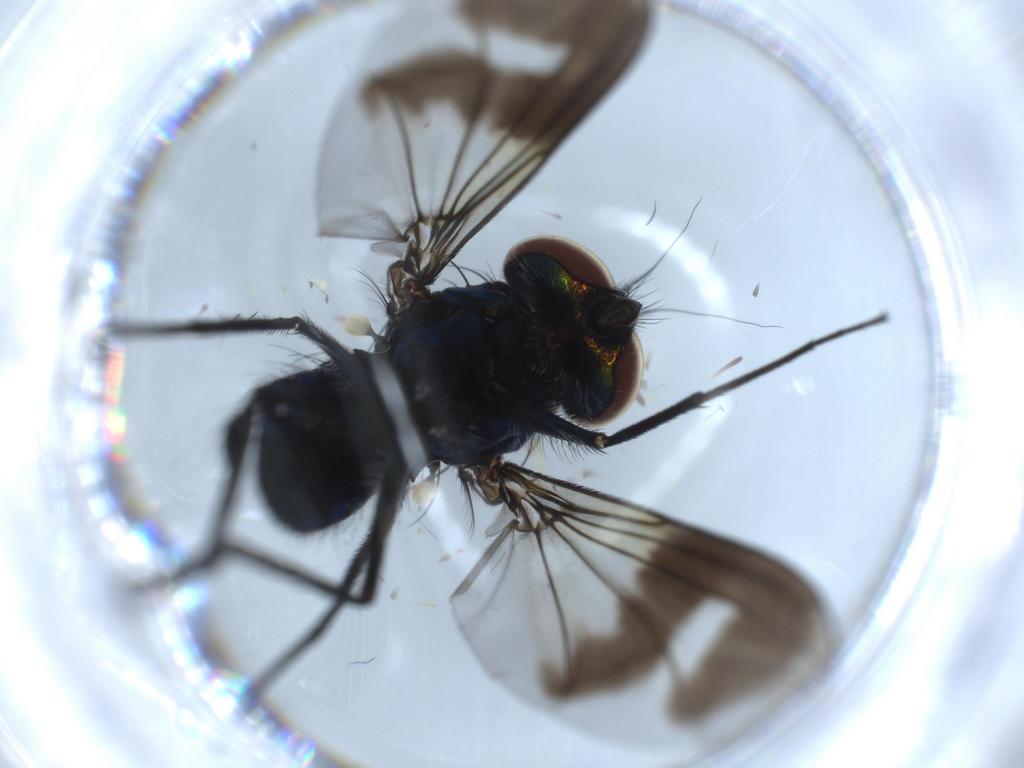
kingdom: Animalia
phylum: Arthropoda
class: Insecta
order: Diptera
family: Dolichopodidae
